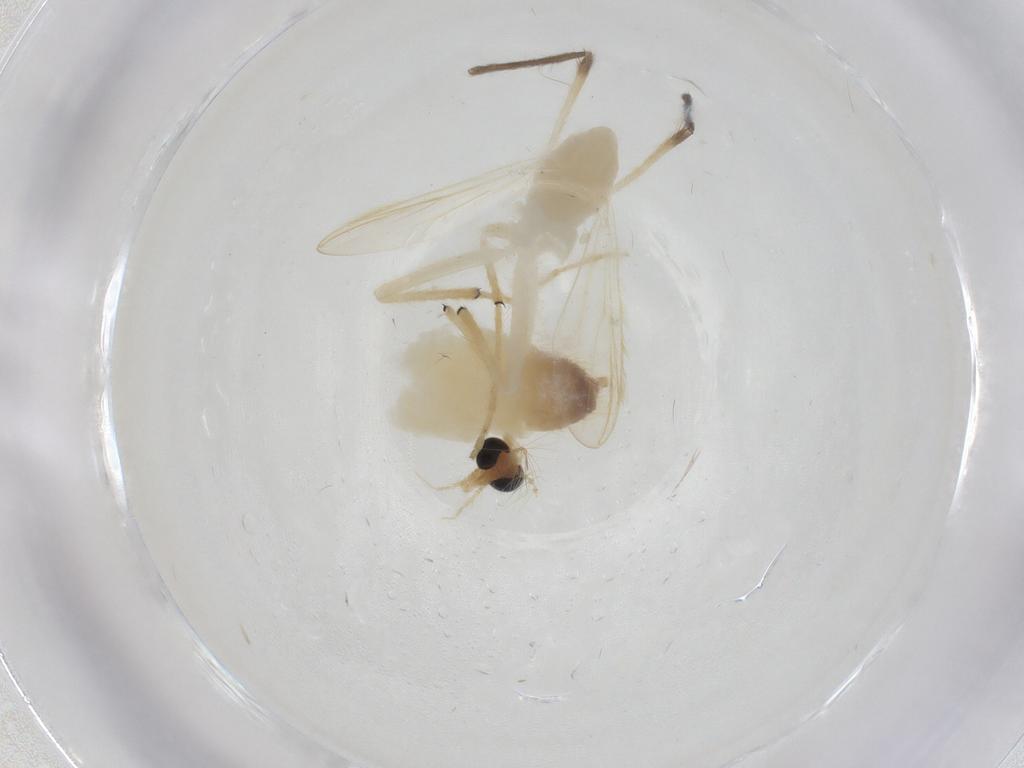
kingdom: Animalia
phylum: Arthropoda
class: Insecta
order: Diptera
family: Chironomidae
